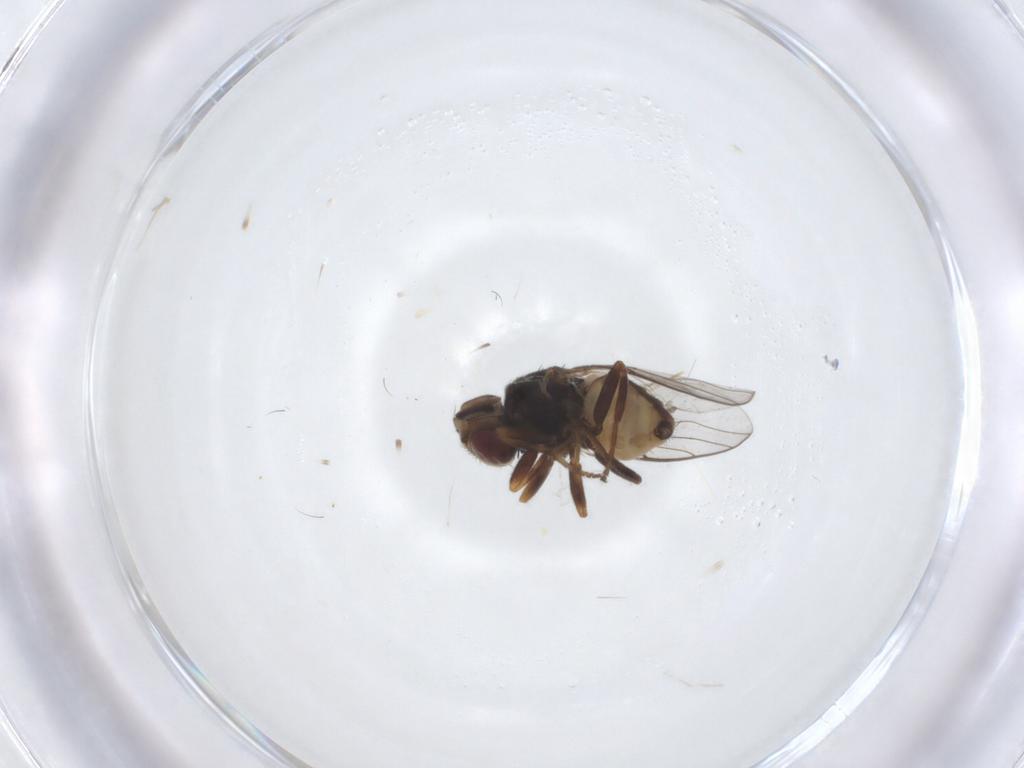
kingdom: Animalia
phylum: Arthropoda
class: Insecta
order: Diptera
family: Chloropidae
